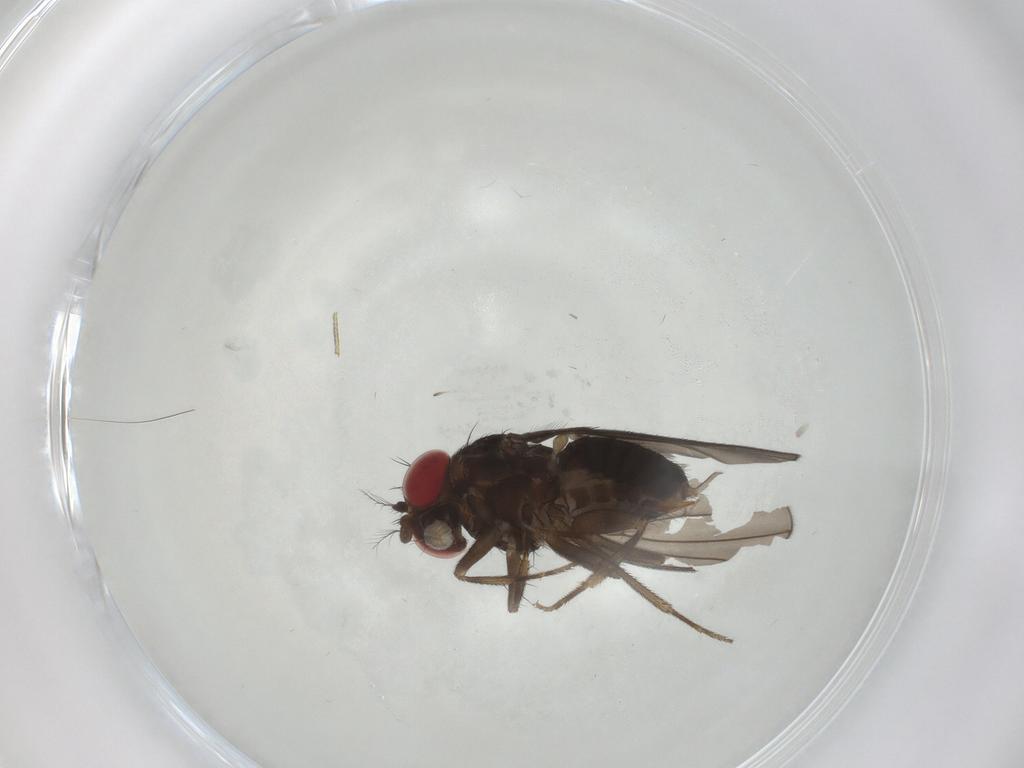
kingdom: Animalia
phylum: Arthropoda
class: Insecta
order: Diptera
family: Drosophilidae
